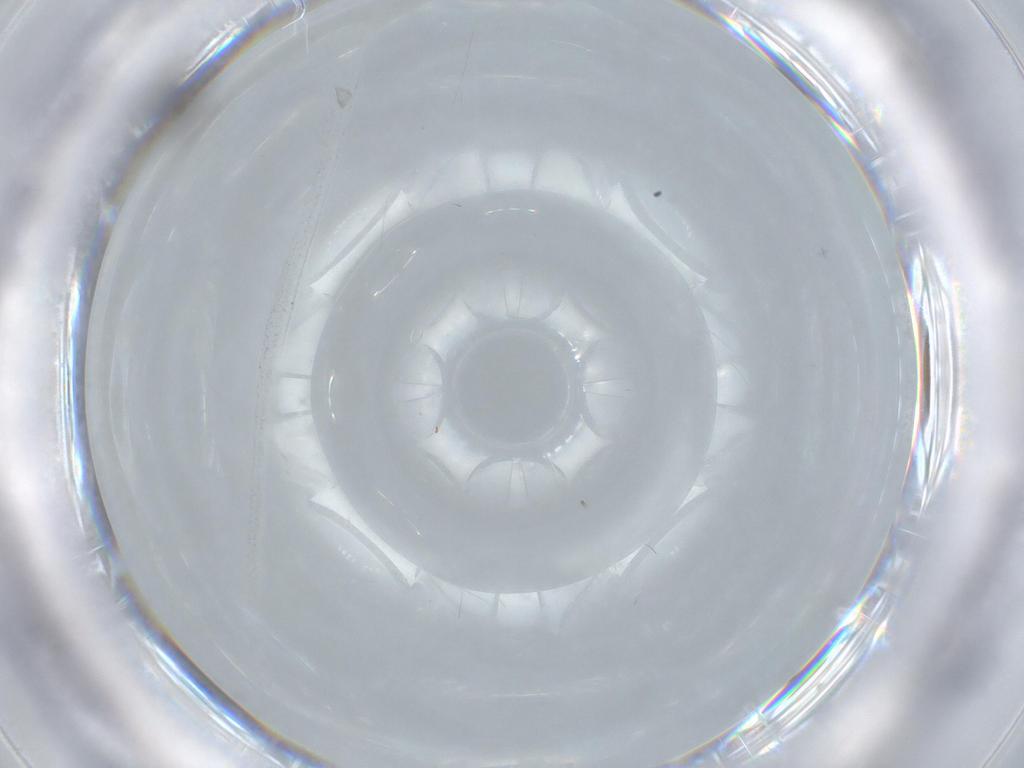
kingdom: Animalia
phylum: Arthropoda
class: Insecta
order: Diptera
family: Cecidomyiidae
